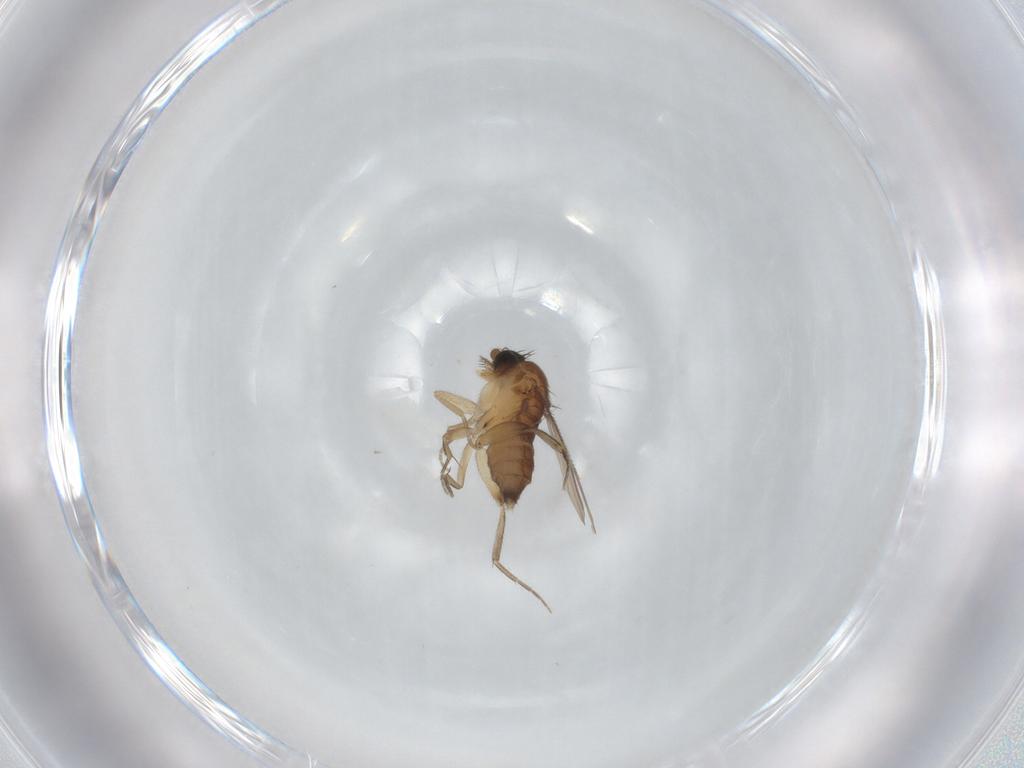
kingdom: Animalia
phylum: Arthropoda
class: Insecta
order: Diptera
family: Phoridae
